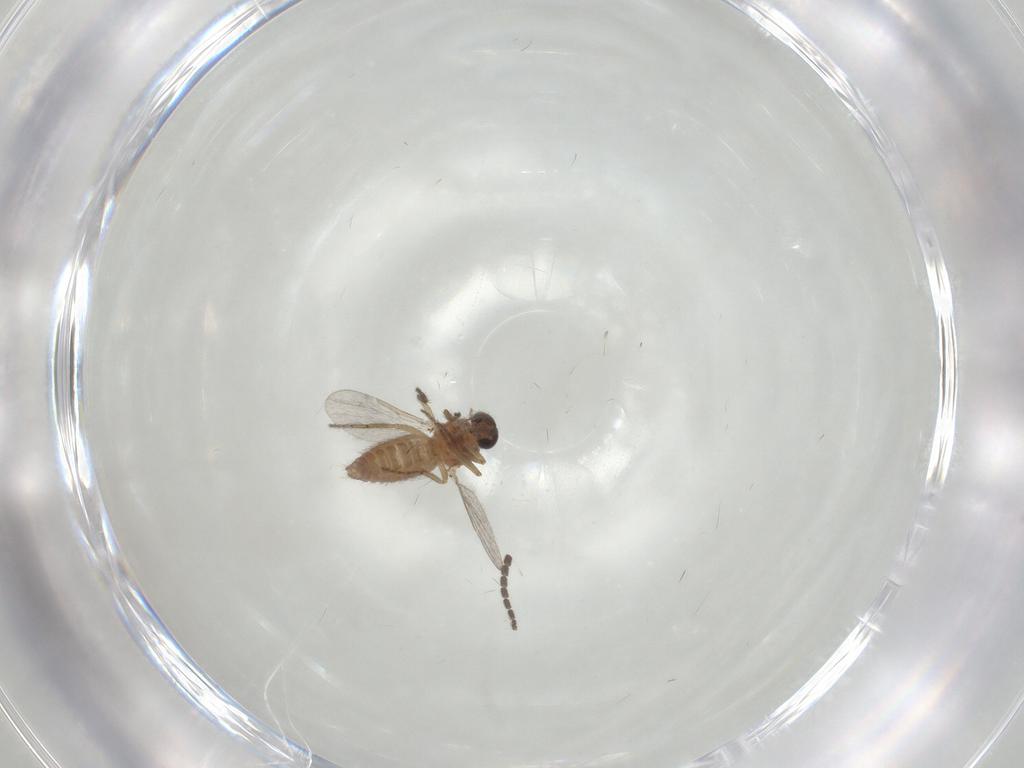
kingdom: Animalia
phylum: Arthropoda
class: Insecta
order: Diptera
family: Ceratopogonidae
